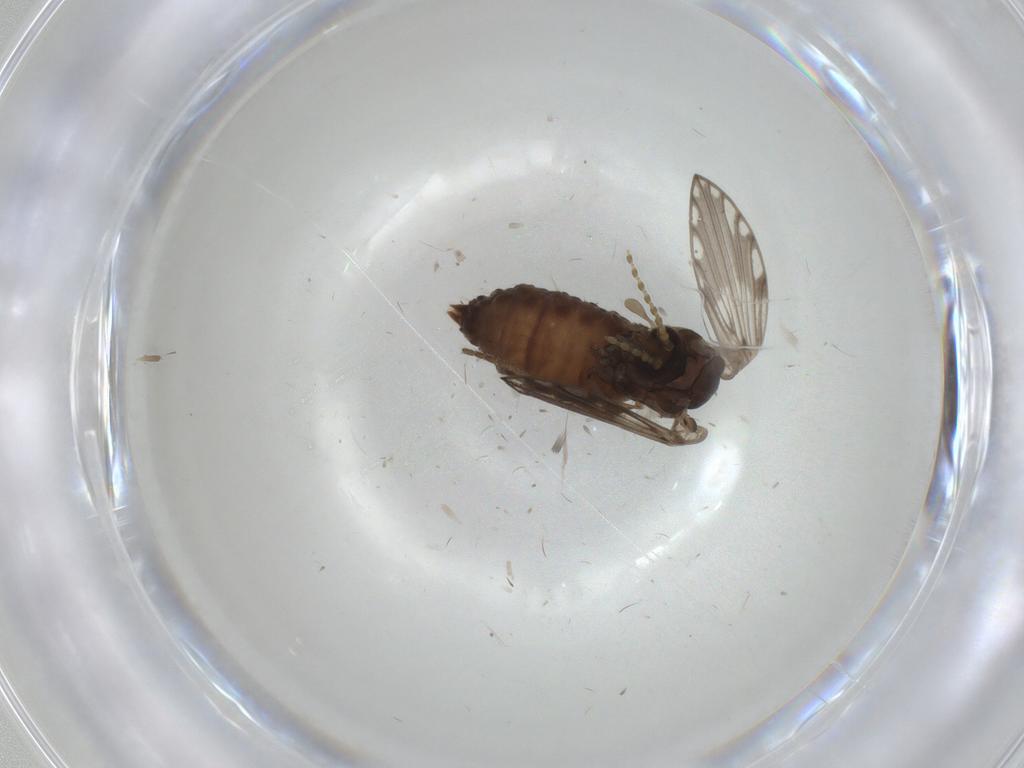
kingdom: Animalia
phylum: Arthropoda
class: Insecta
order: Diptera
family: Psychodidae
